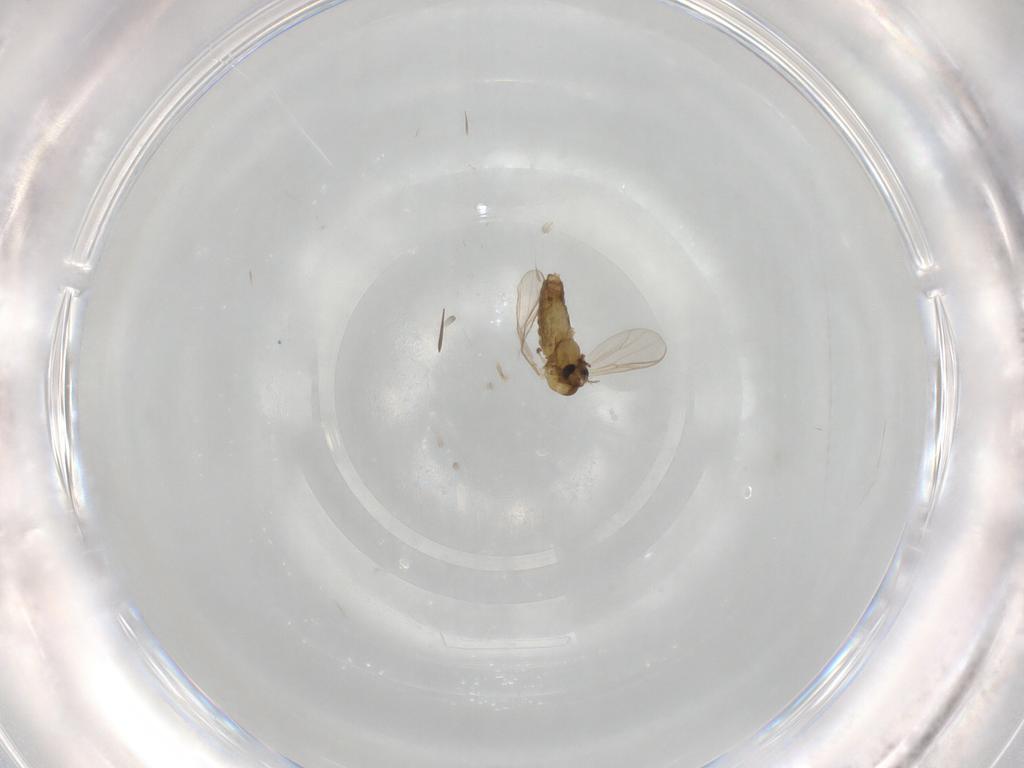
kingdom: Animalia
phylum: Arthropoda
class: Insecta
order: Diptera
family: Chironomidae
